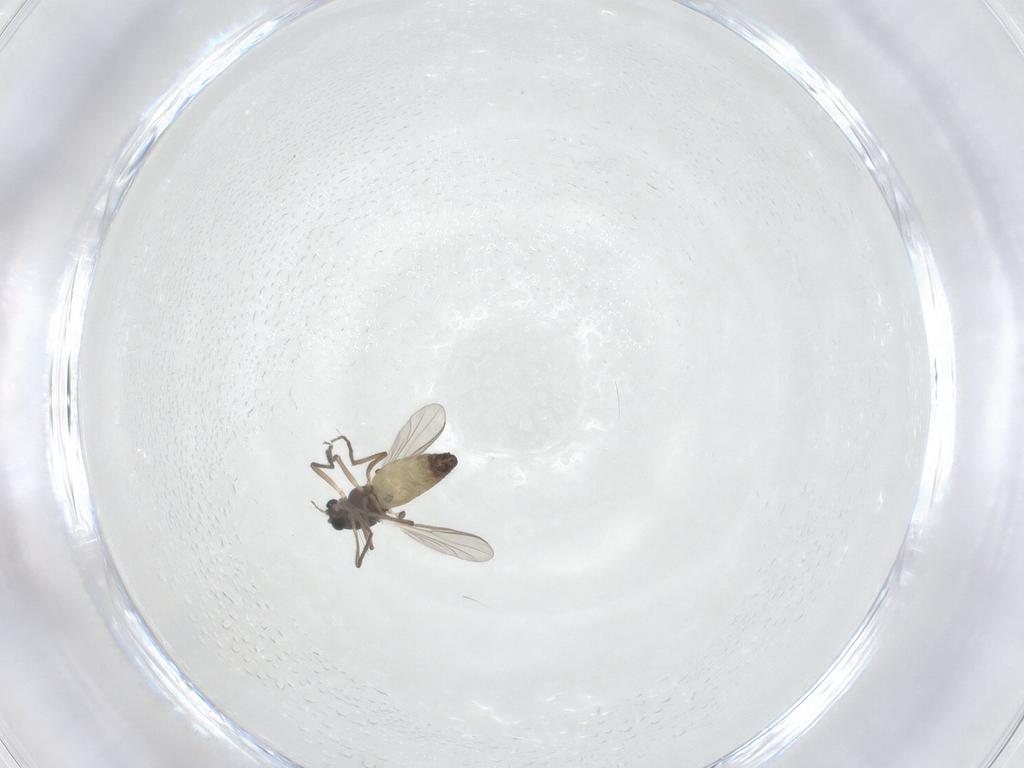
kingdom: Animalia
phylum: Arthropoda
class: Insecta
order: Diptera
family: Chironomidae
